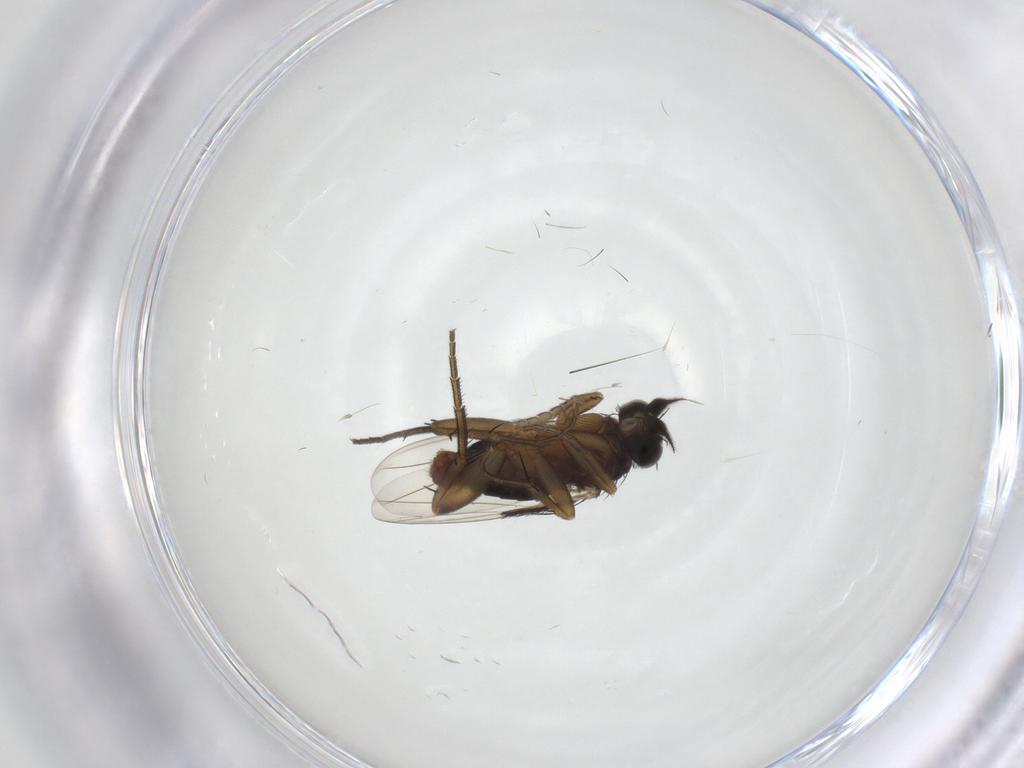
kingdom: Animalia
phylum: Arthropoda
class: Insecta
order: Diptera
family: Phoridae
